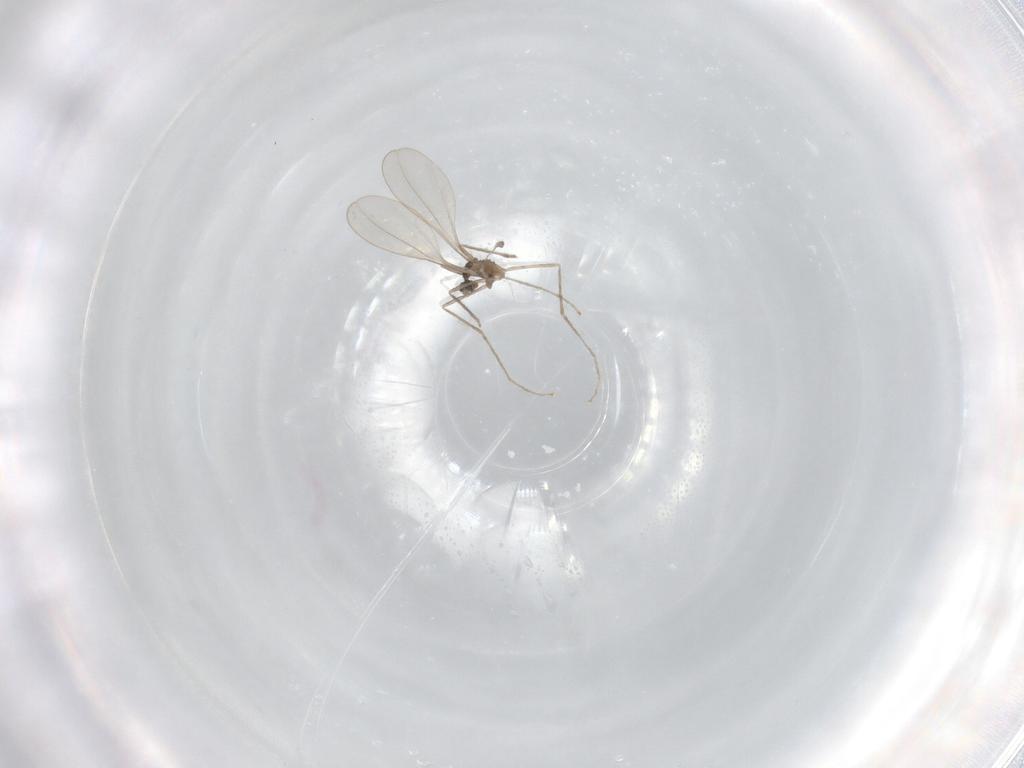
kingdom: Animalia
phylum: Arthropoda
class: Insecta
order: Diptera
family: Cecidomyiidae
